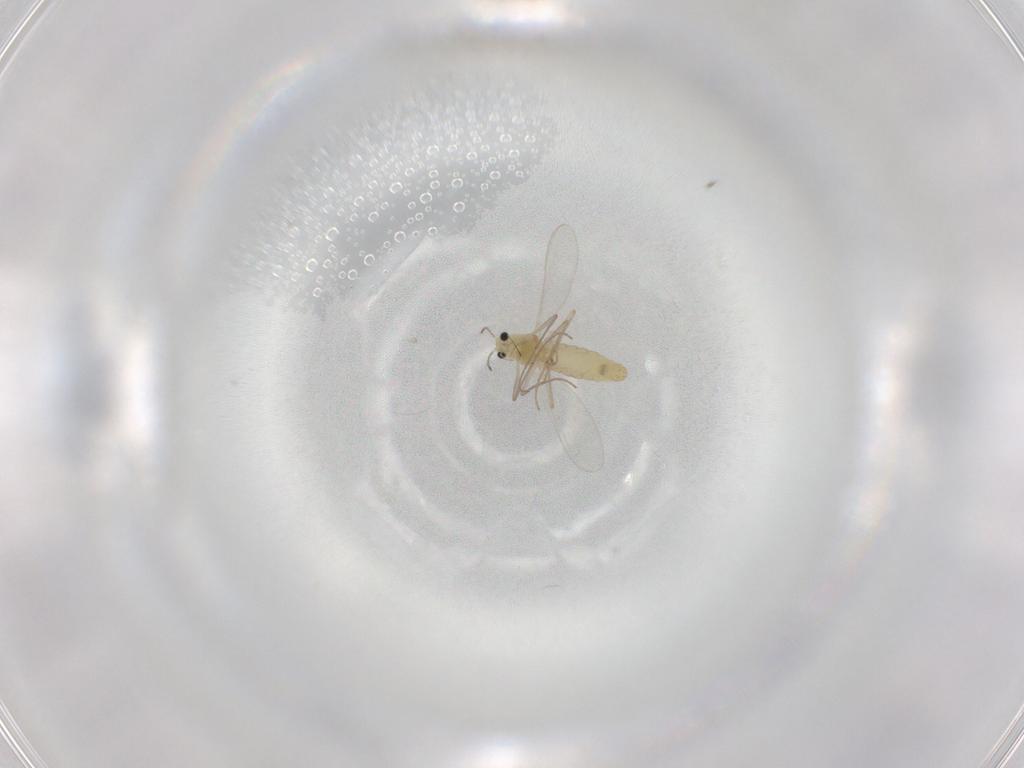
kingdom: Animalia
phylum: Arthropoda
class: Insecta
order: Diptera
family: Chironomidae
